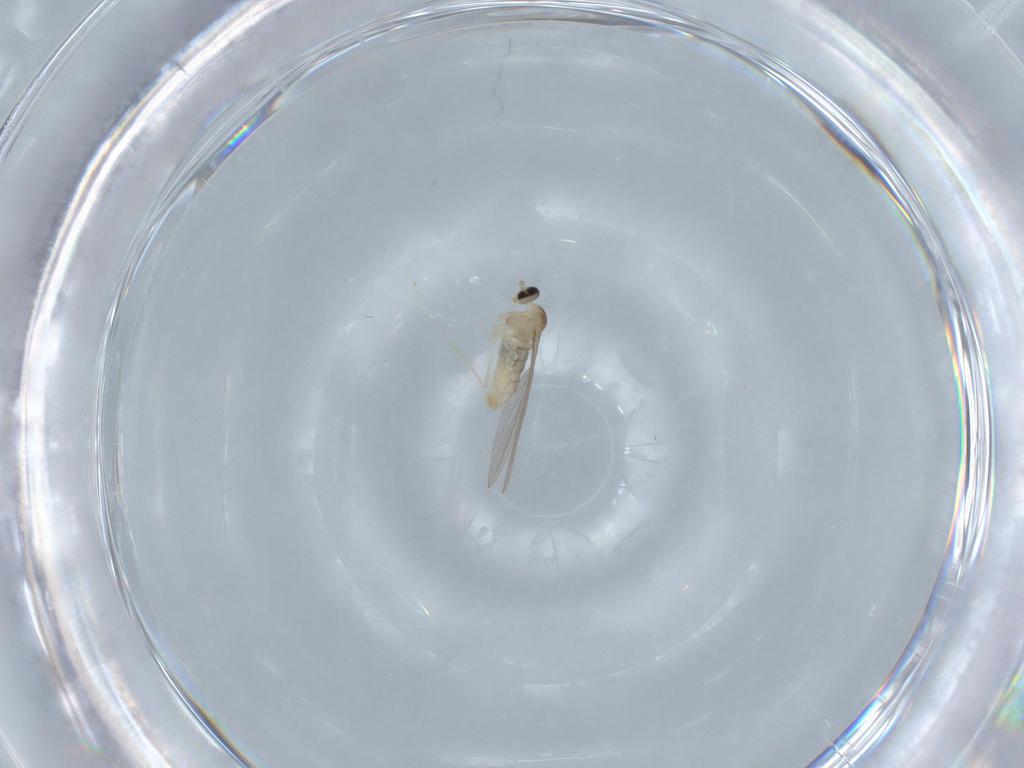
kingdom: Animalia
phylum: Arthropoda
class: Insecta
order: Diptera
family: Cecidomyiidae
